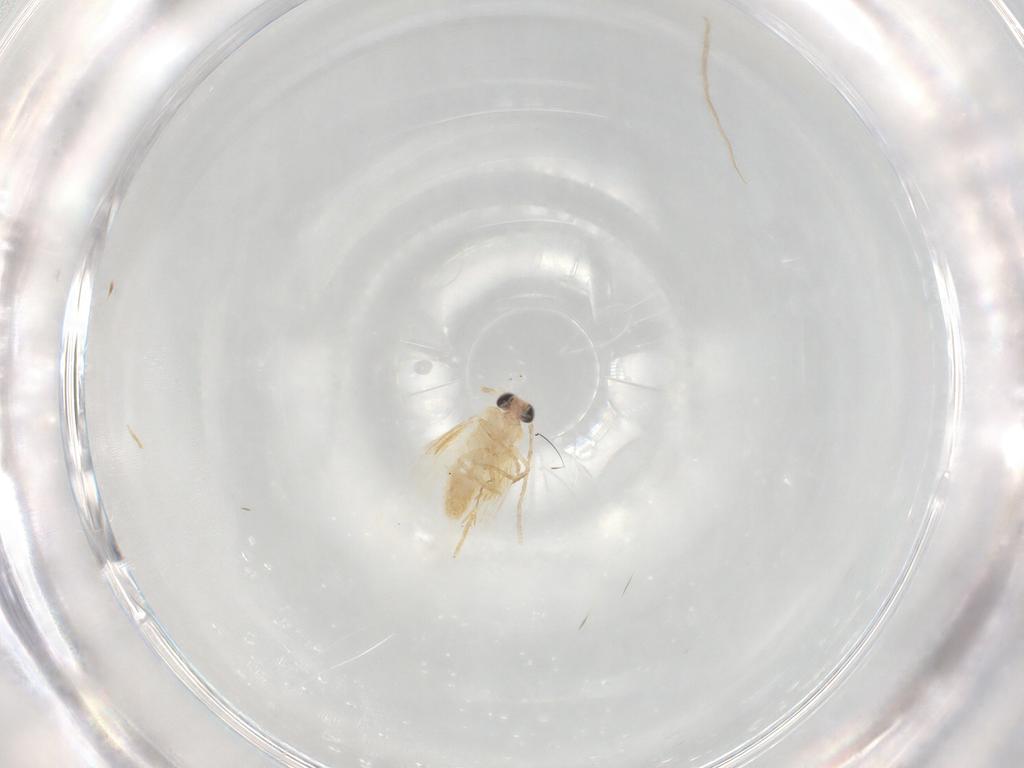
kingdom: Animalia
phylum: Arthropoda
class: Insecta
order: Lepidoptera
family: Nepticulidae
